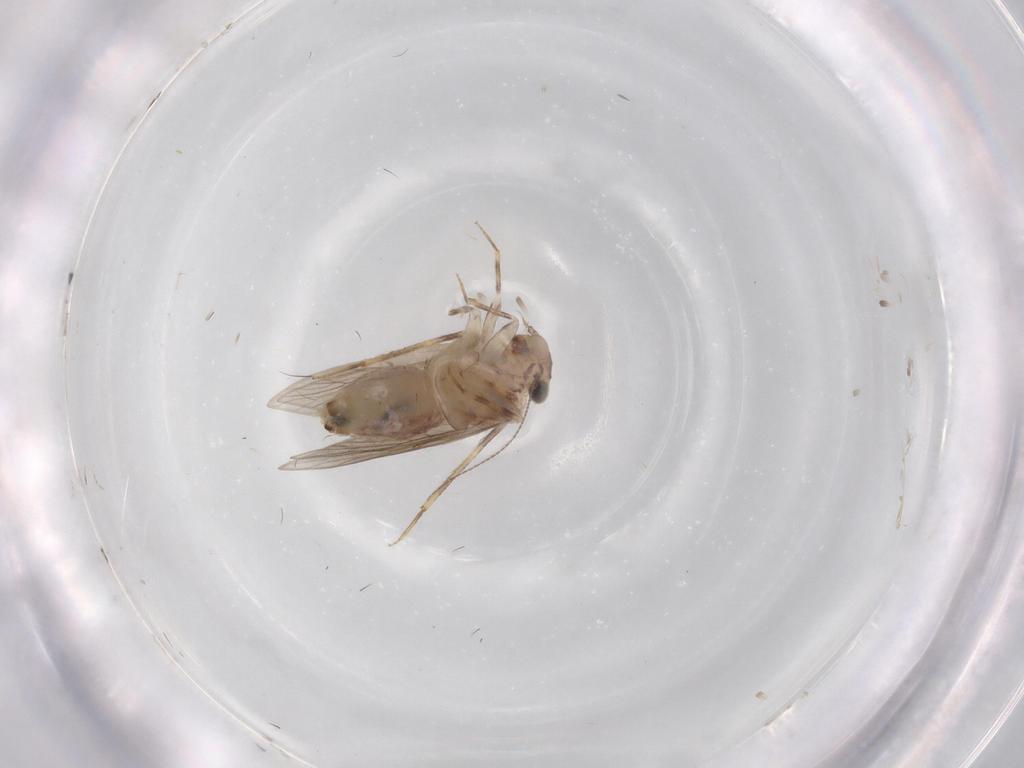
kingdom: Animalia
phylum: Arthropoda
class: Insecta
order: Psocodea
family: Lepidopsocidae
